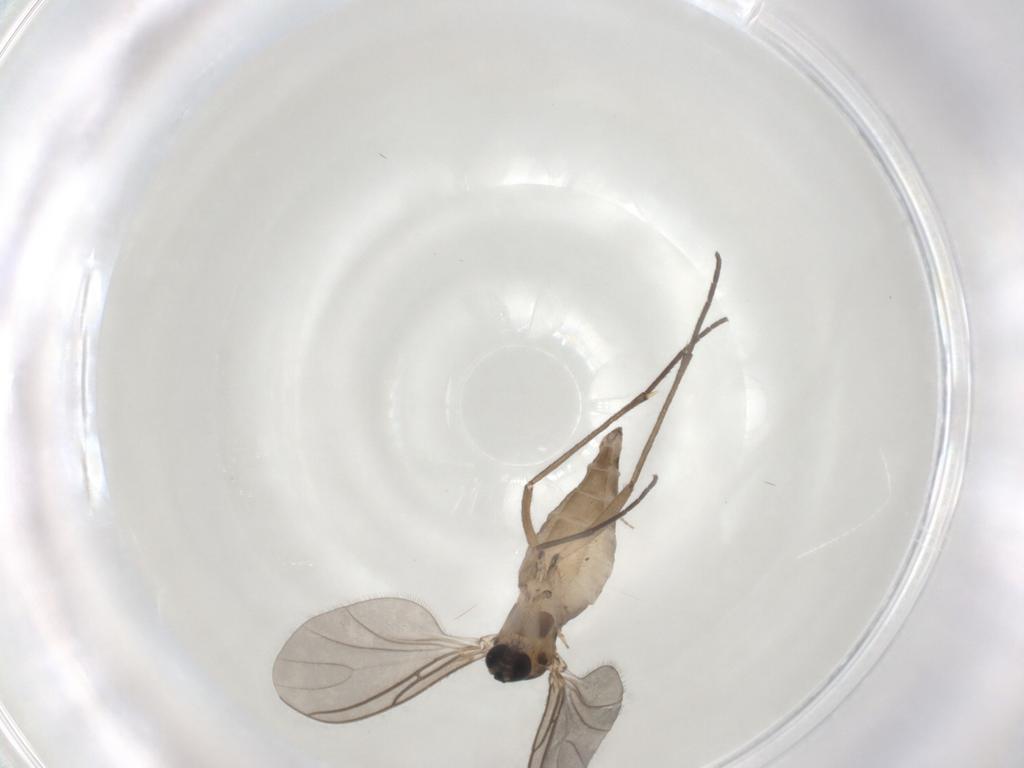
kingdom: Animalia
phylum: Arthropoda
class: Insecta
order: Diptera
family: Sciaridae
